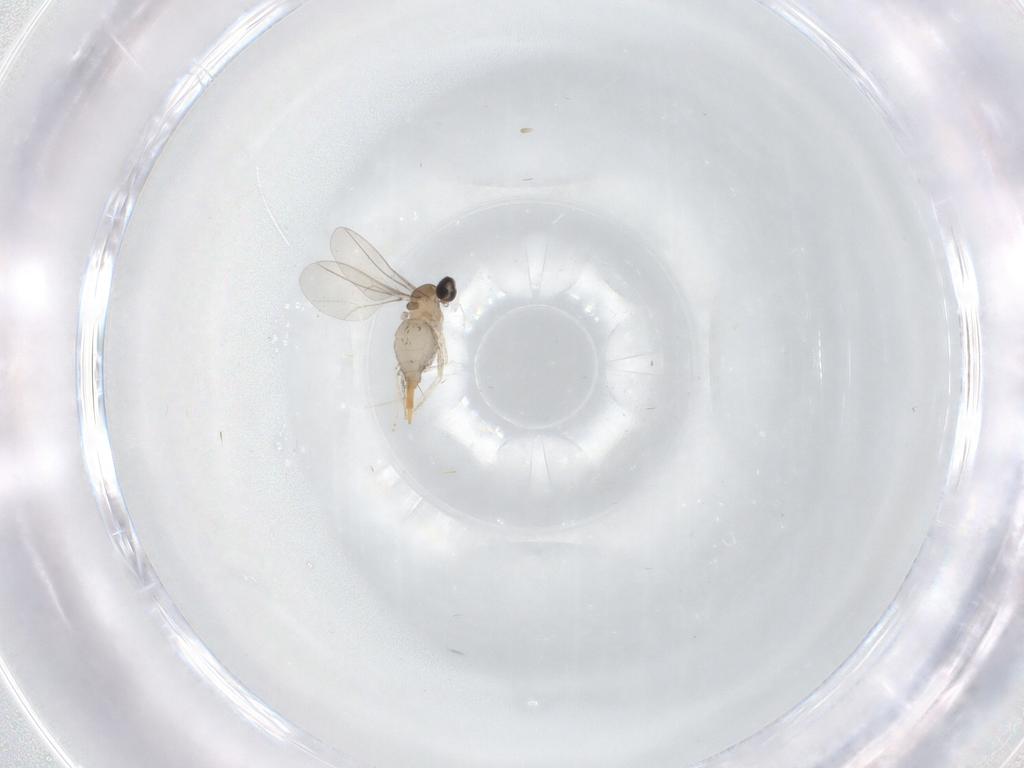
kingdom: Animalia
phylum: Arthropoda
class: Insecta
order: Diptera
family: Cecidomyiidae
